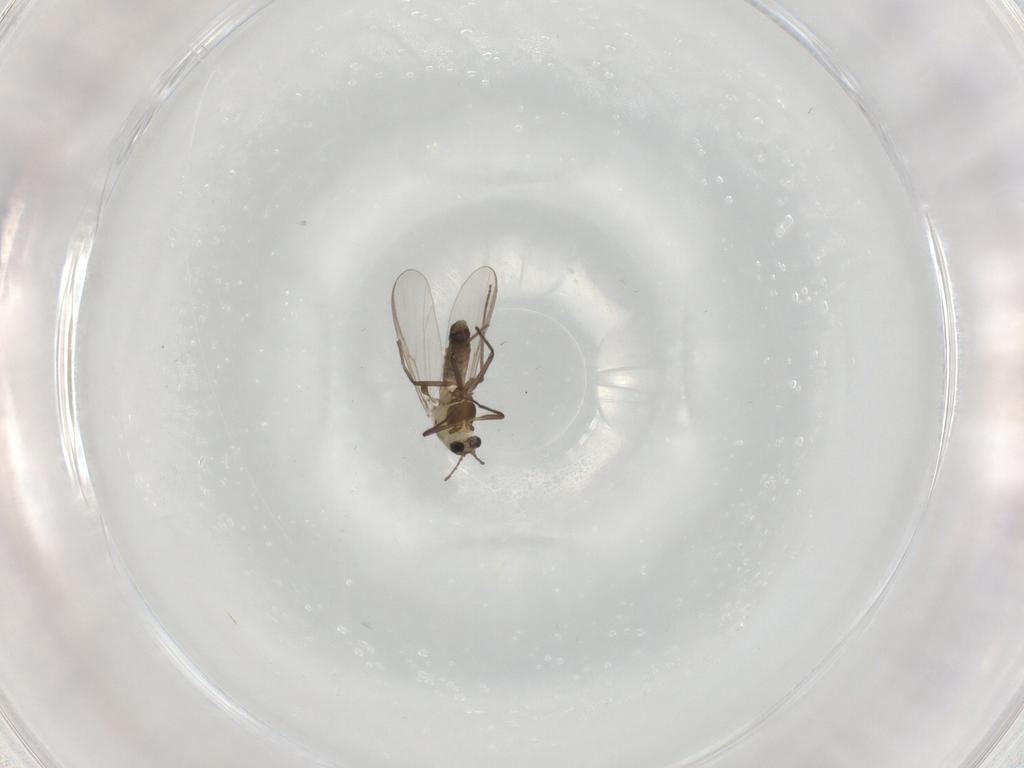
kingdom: Animalia
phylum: Arthropoda
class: Insecta
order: Diptera
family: Chironomidae
